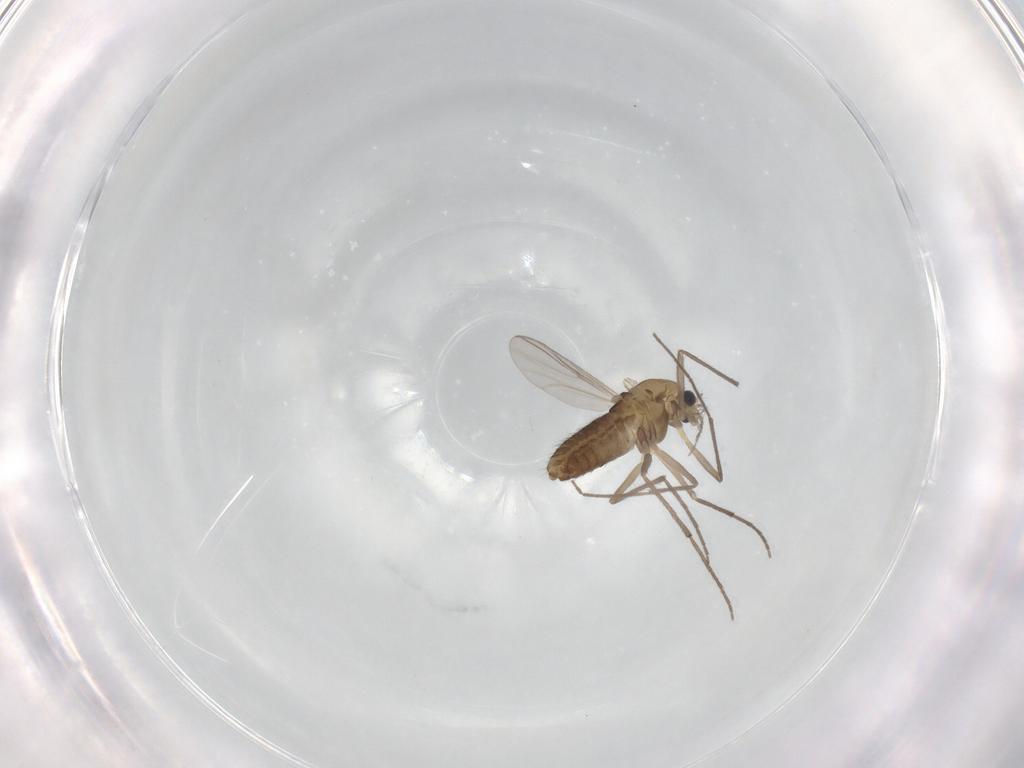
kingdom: Animalia
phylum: Arthropoda
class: Insecta
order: Diptera
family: Chironomidae
